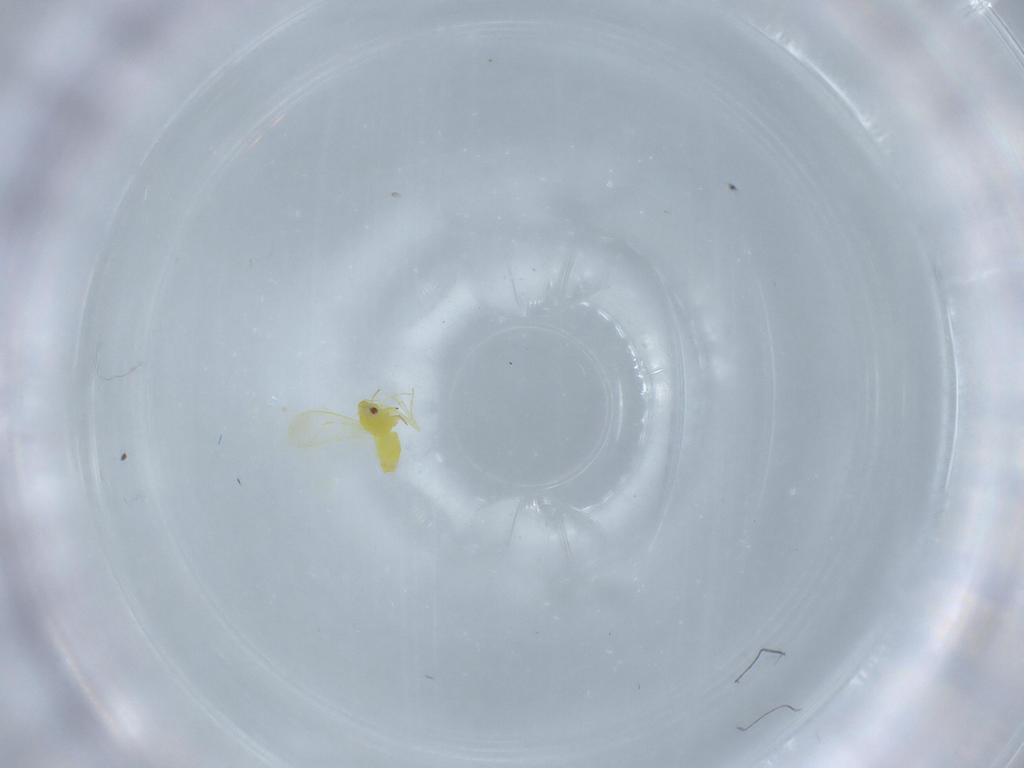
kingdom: Animalia
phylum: Arthropoda
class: Insecta
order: Hemiptera
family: Aleyrodidae
